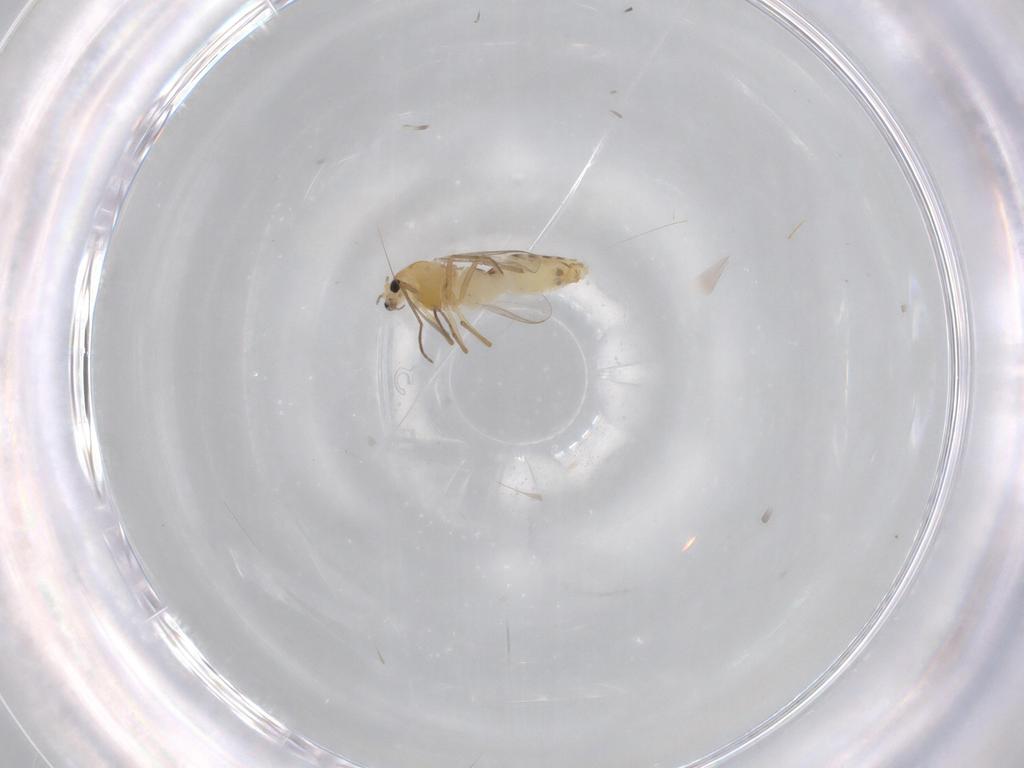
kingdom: Animalia
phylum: Arthropoda
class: Insecta
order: Diptera
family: Chironomidae
